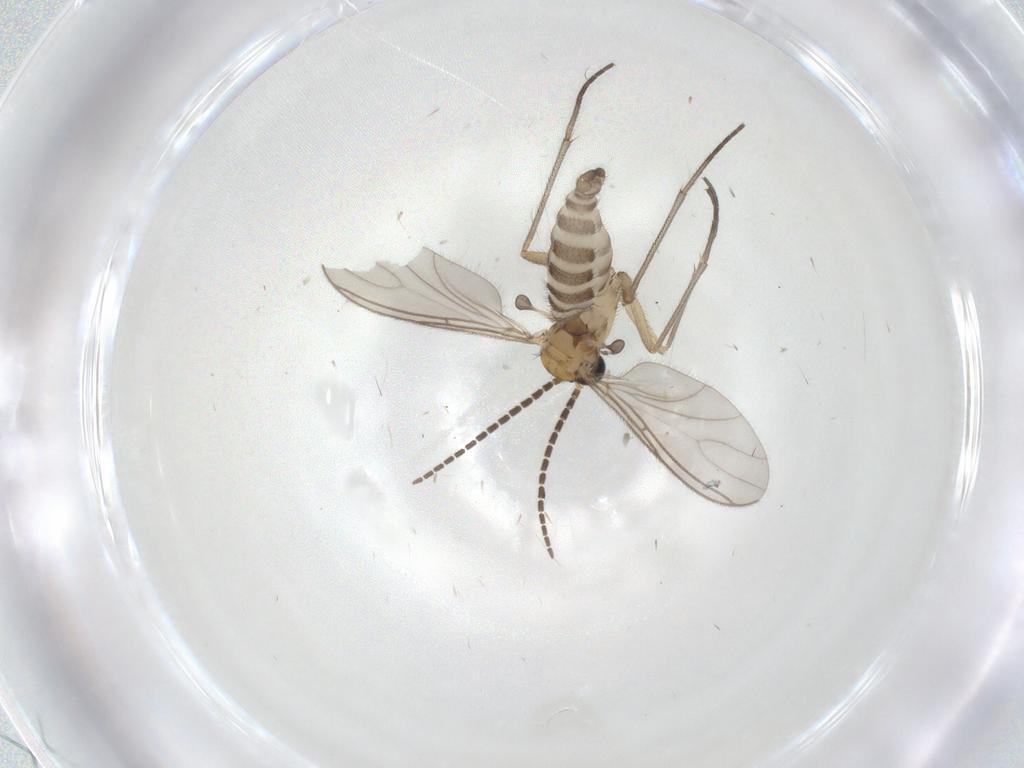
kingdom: Animalia
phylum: Arthropoda
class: Insecta
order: Diptera
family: Sciaridae
